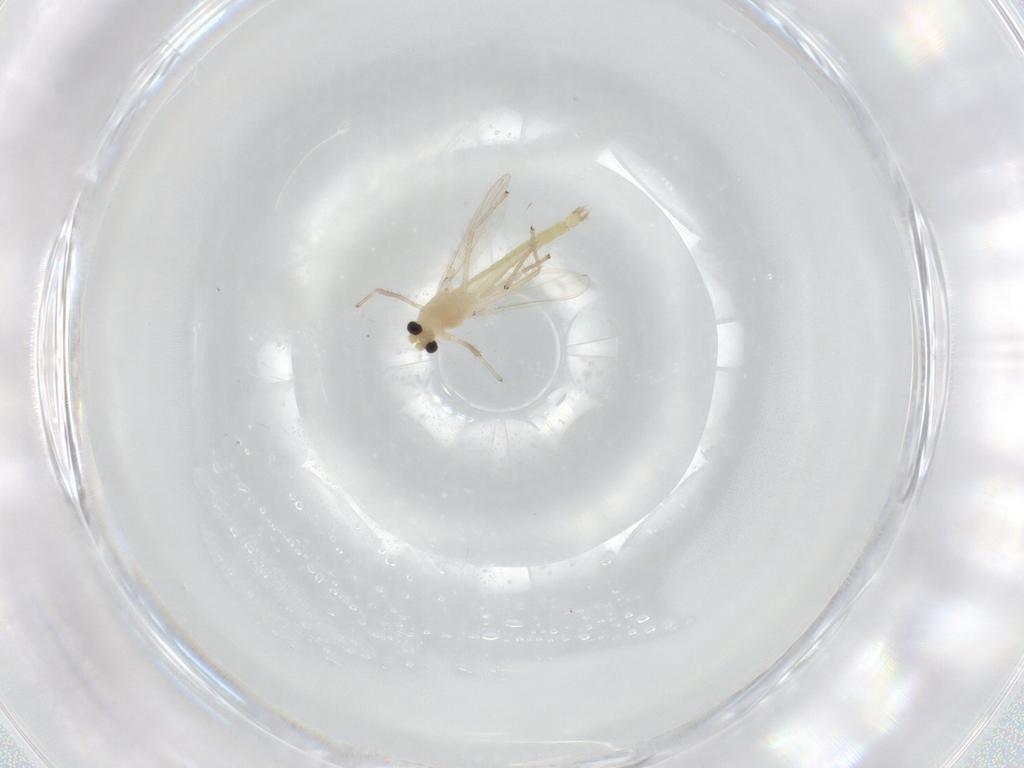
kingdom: Animalia
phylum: Arthropoda
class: Insecta
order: Diptera
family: Chironomidae
